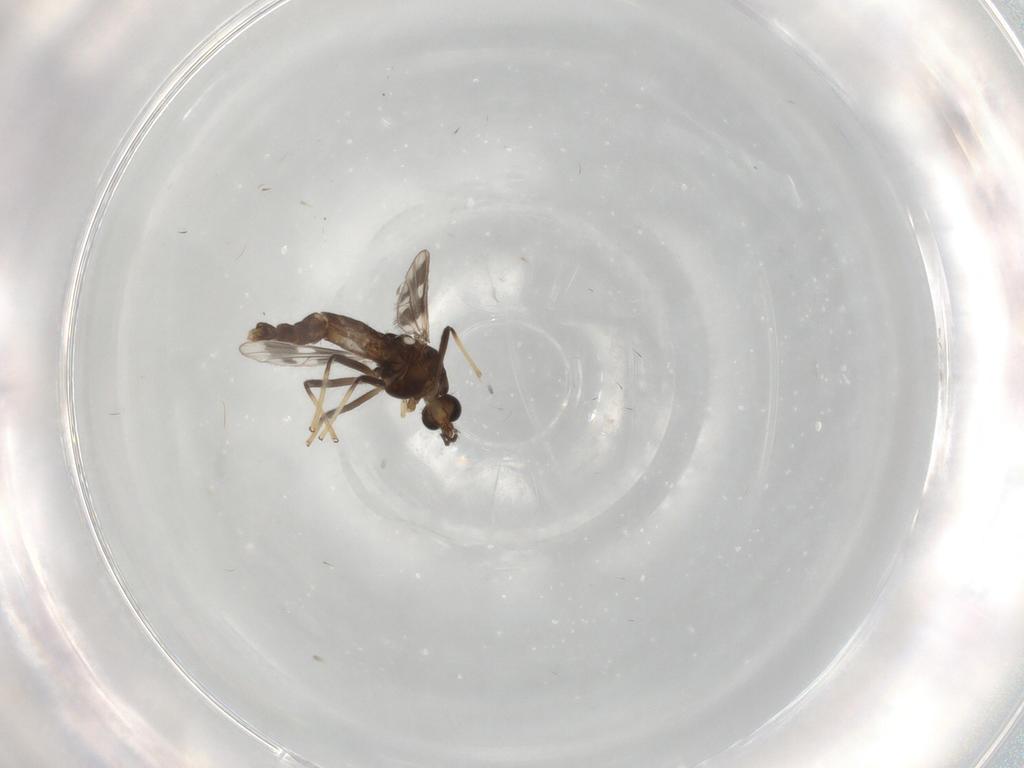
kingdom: Animalia
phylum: Arthropoda
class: Insecta
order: Diptera
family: Chironomidae
